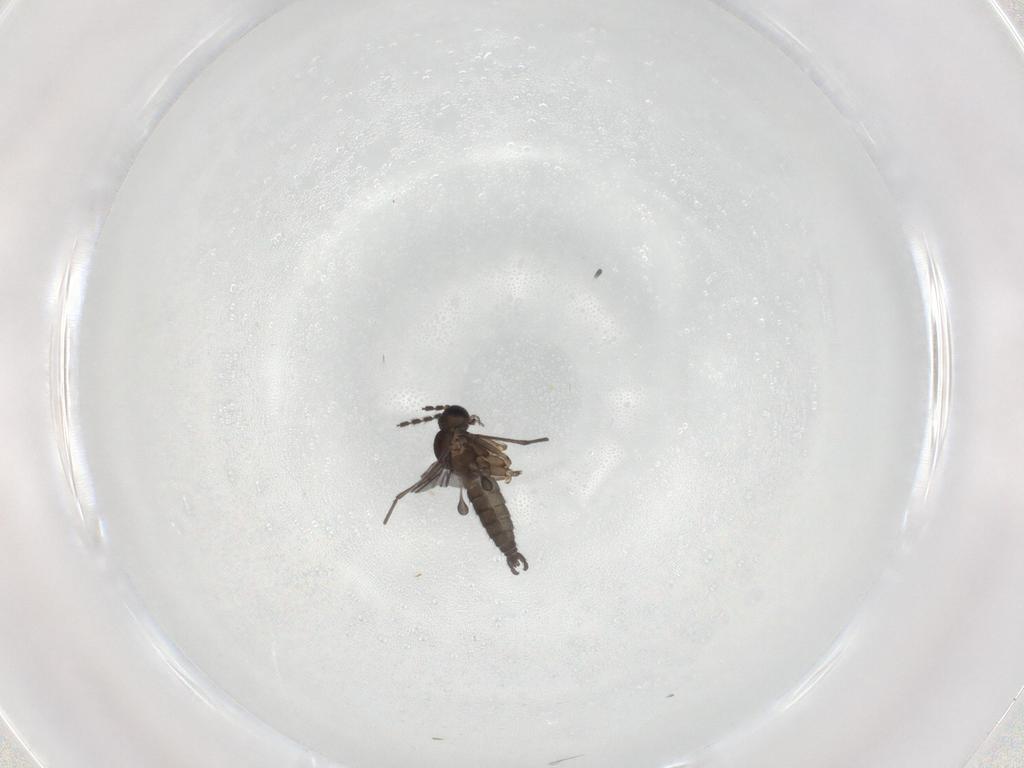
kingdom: Animalia
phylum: Arthropoda
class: Insecta
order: Diptera
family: Sciaridae
